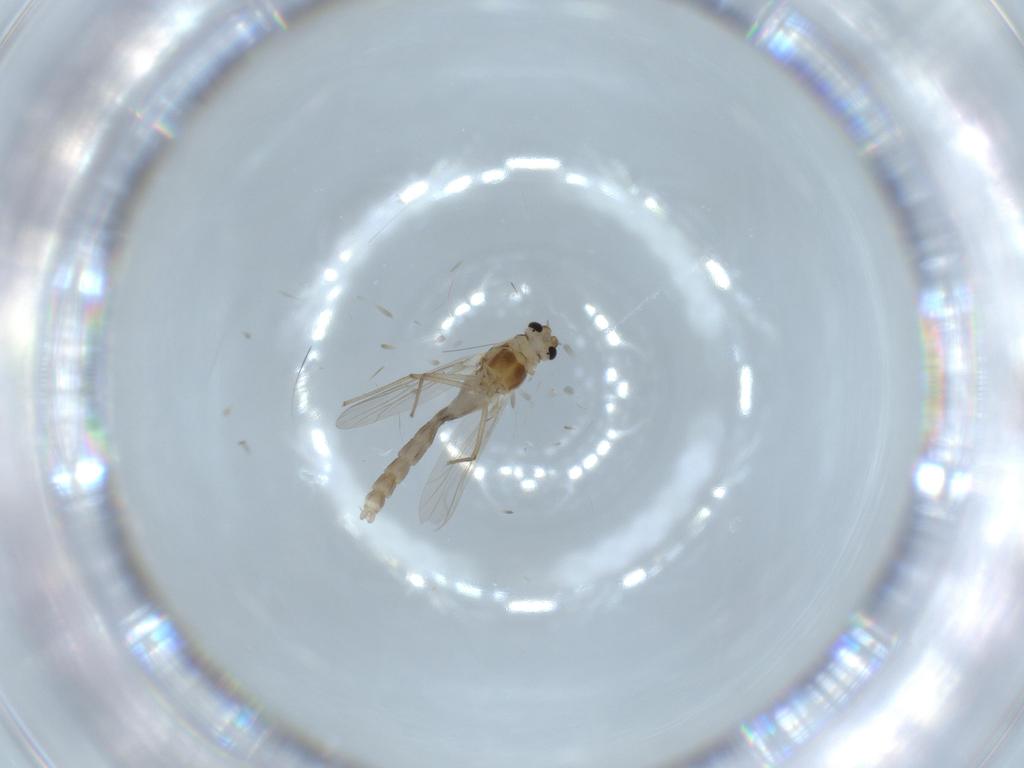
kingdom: Animalia
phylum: Arthropoda
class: Insecta
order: Diptera
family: Chironomidae
